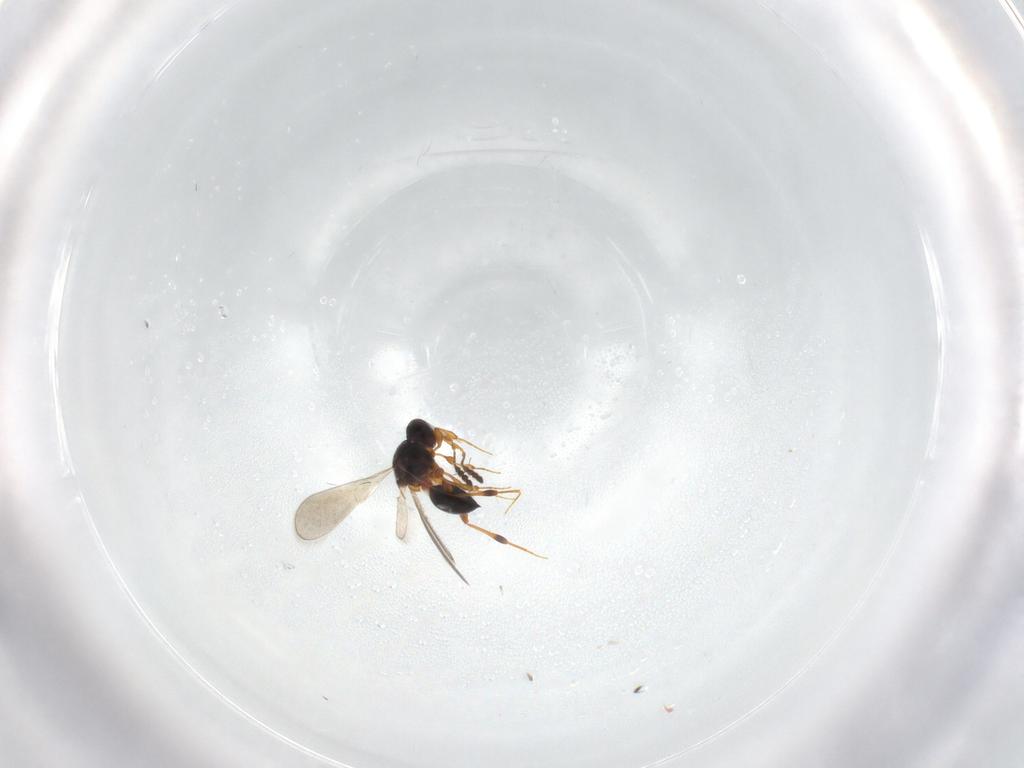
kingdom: Animalia
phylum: Arthropoda
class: Insecta
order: Hymenoptera
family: Platygastridae
